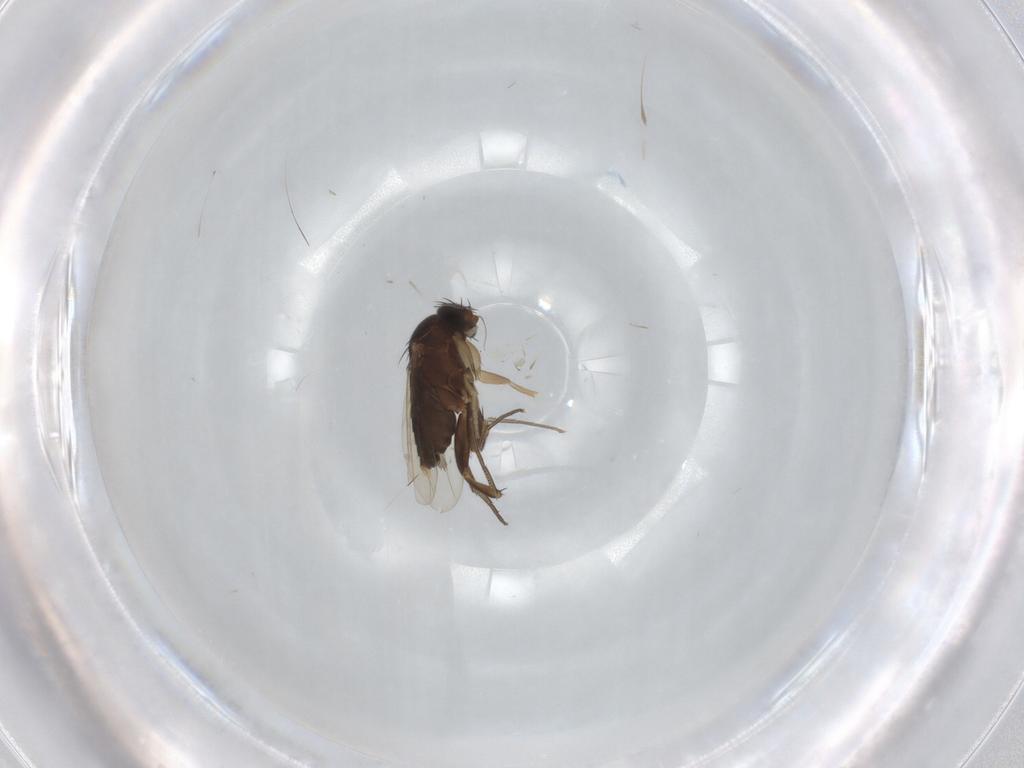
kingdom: Animalia
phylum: Arthropoda
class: Insecta
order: Diptera
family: Phoridae
